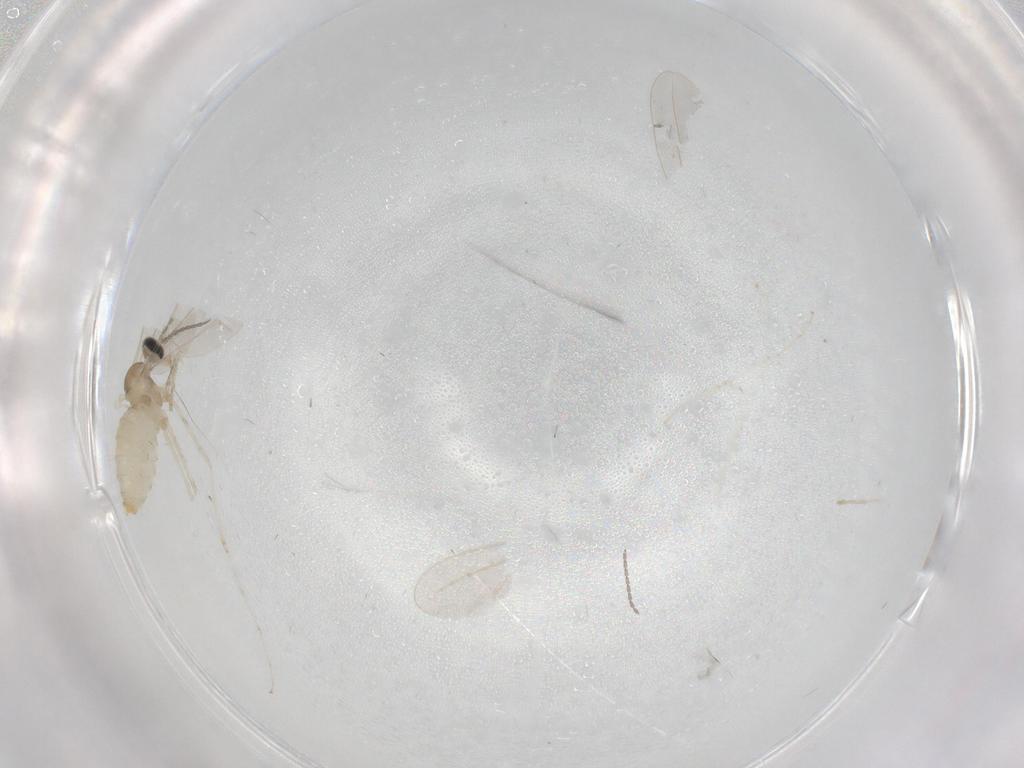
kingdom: Animalia
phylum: Arthropoda
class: Insecta
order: Diptera
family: Cecidomyiidae
